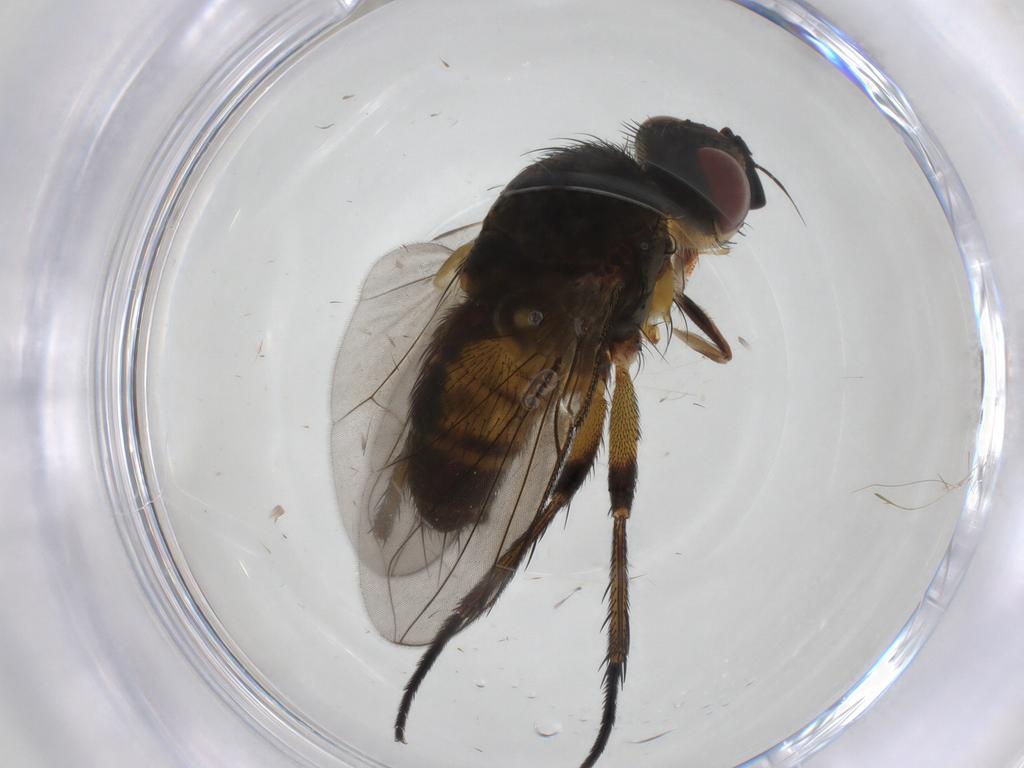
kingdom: Animalia
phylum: Arthropoda
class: Insecta
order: Diptera
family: Tachinidae
